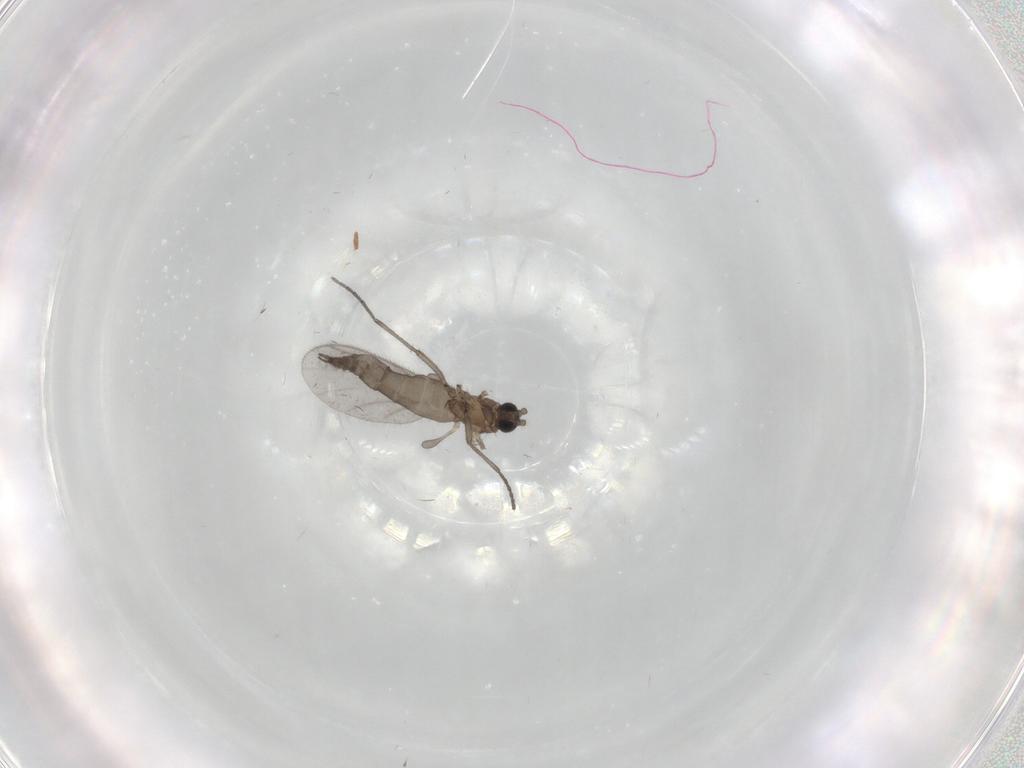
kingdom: Animalia
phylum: Arthropoda
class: Insecta
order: Diptera
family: Sciaridae
